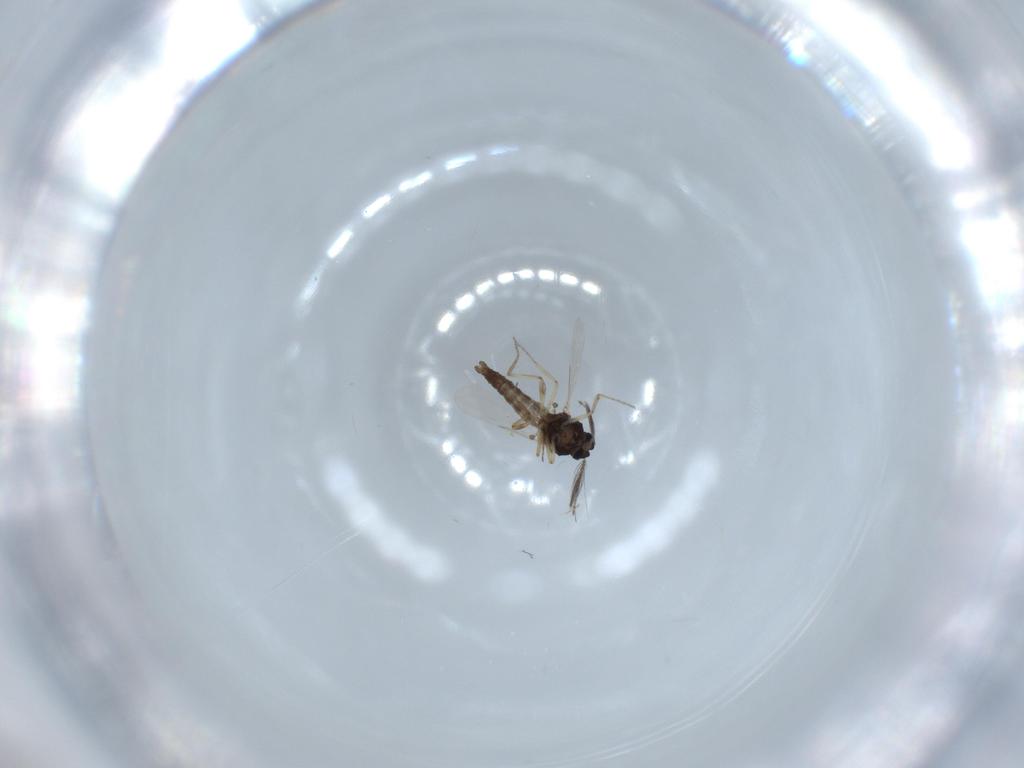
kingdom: Animalia
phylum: Arthropoda
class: Insecta
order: Diptera
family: Ceratopogonidae
